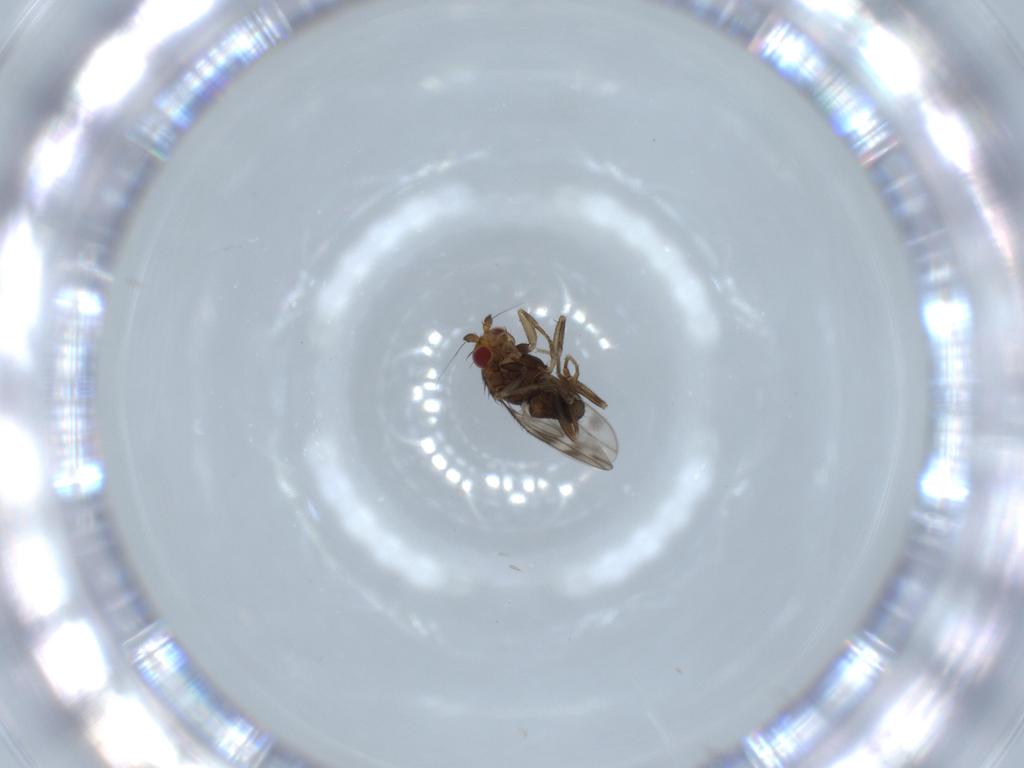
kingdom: Animalia
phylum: Arthropoda
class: Insecta
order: Diptera
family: Sphaeroceridae
